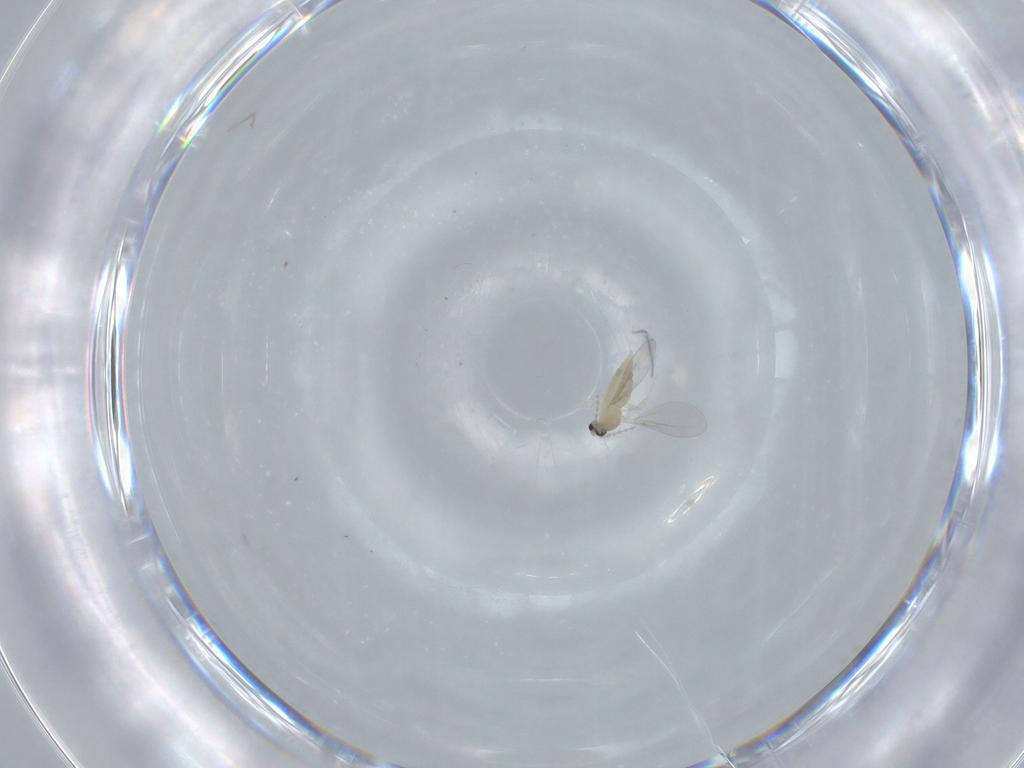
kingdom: Animalia
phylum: Arthropoda
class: Insecta
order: Diptera
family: Cecidomyiidae
